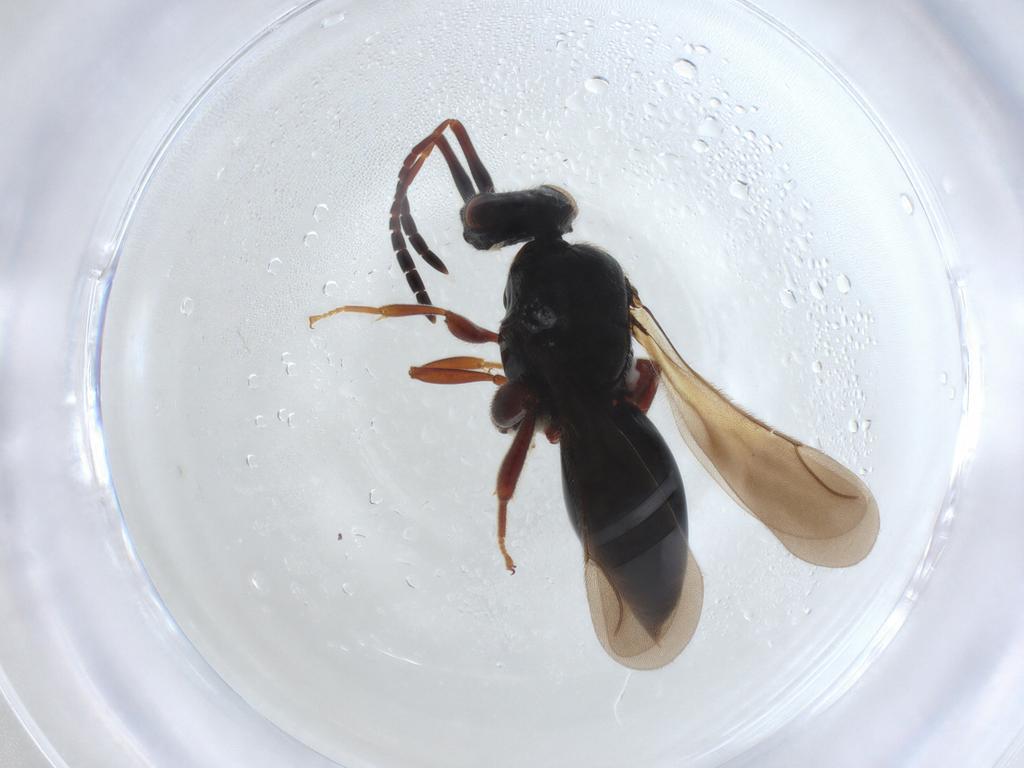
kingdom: Animalia
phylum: Arthropoda
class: Insecta
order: Hymenoptera
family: Ceraphronidae
